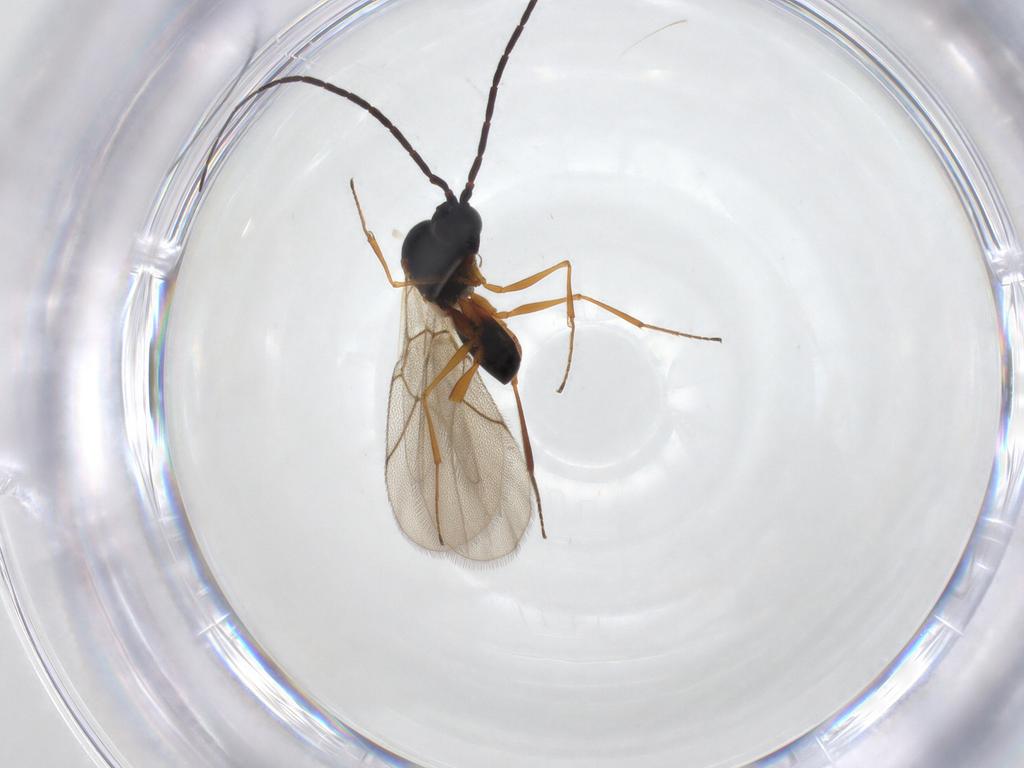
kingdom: Animalia
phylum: Arthropoda
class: Insecta
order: Hymenoptera
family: Figitidae
